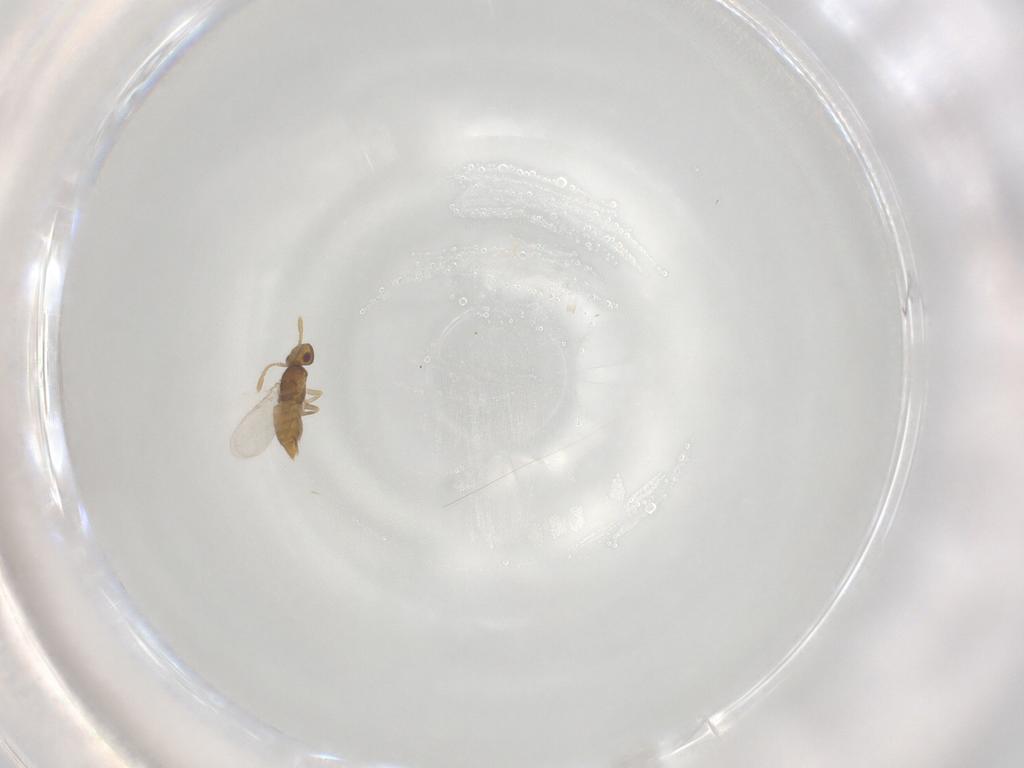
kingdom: Animalia
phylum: Arthropoda
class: Insecta
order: Hymenoptera
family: Encyrtidae
